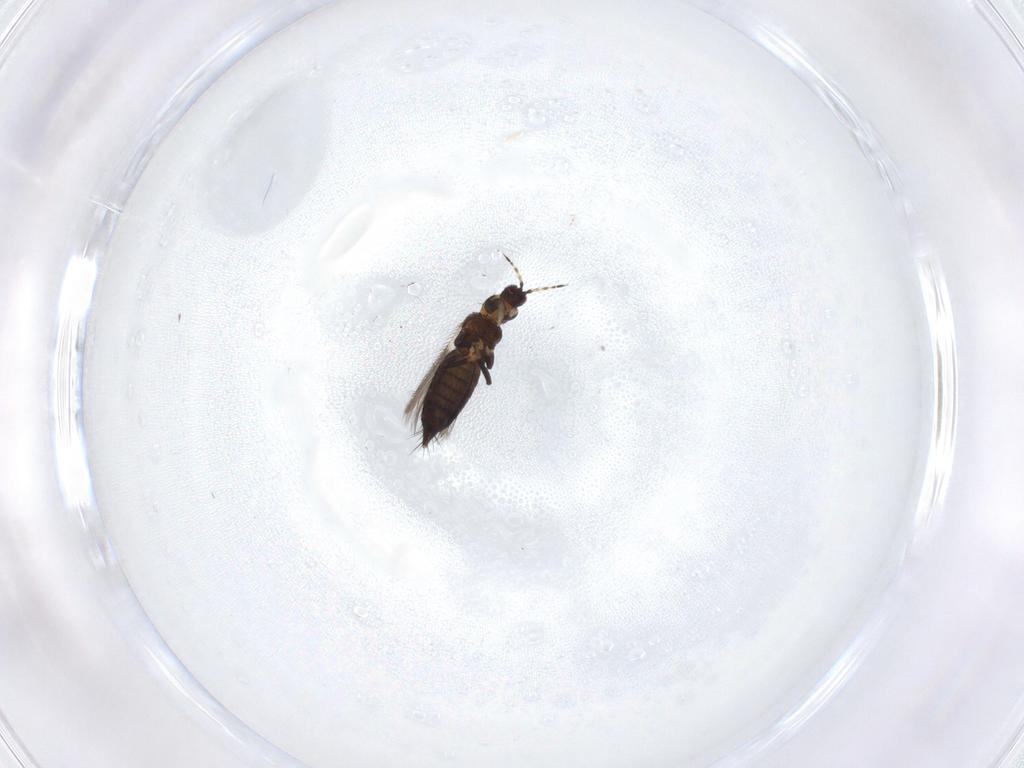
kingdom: Animalia
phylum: Arthropoda
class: Insecta
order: Thysanoptera
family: Thripidae
